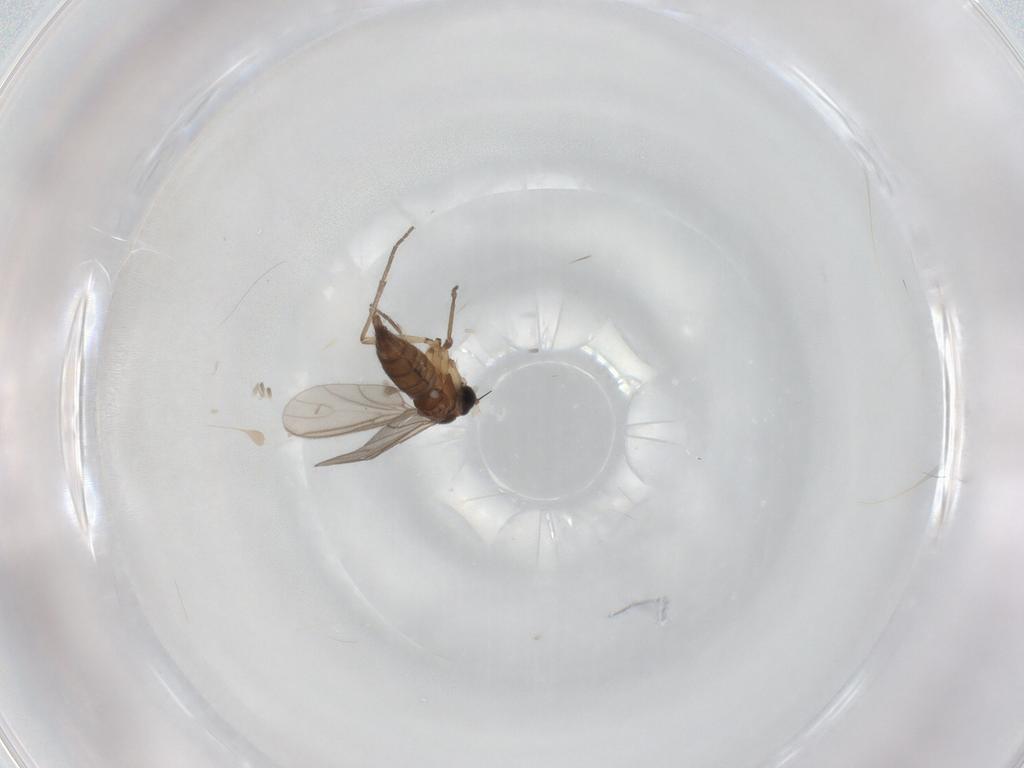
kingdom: Animalia
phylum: Arthropoda
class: Insecta
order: Diptera
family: Sciaridae
